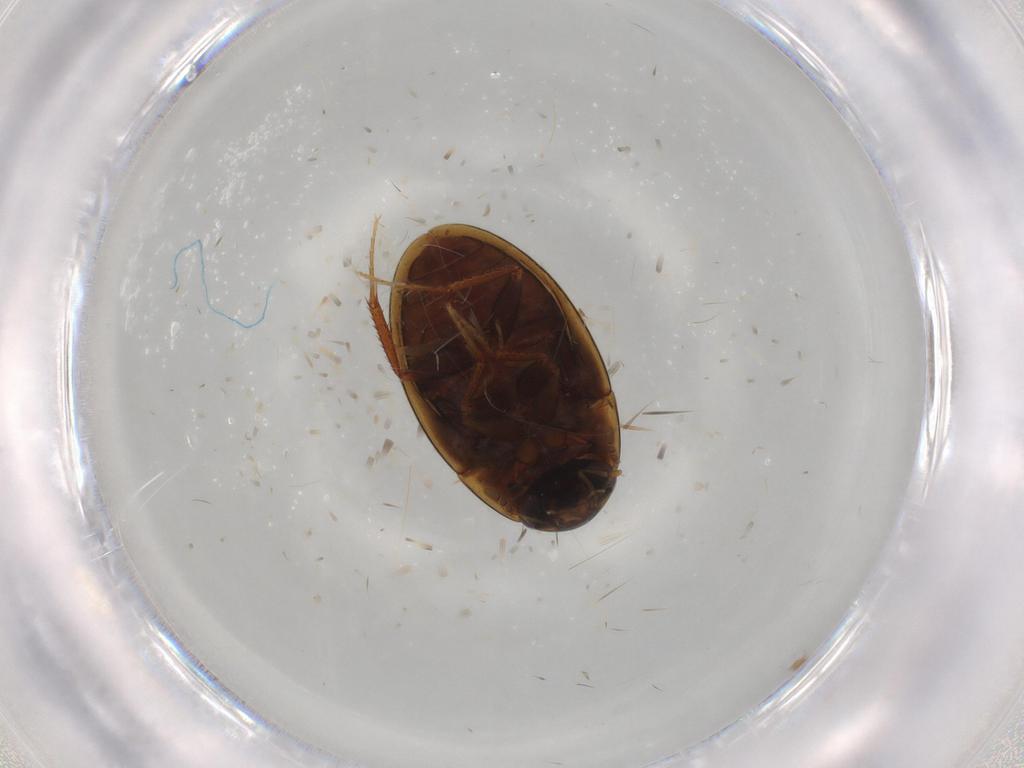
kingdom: Animalia
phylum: Arthropoda
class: Insecta
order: Coleoptera
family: Hydrophilidae
